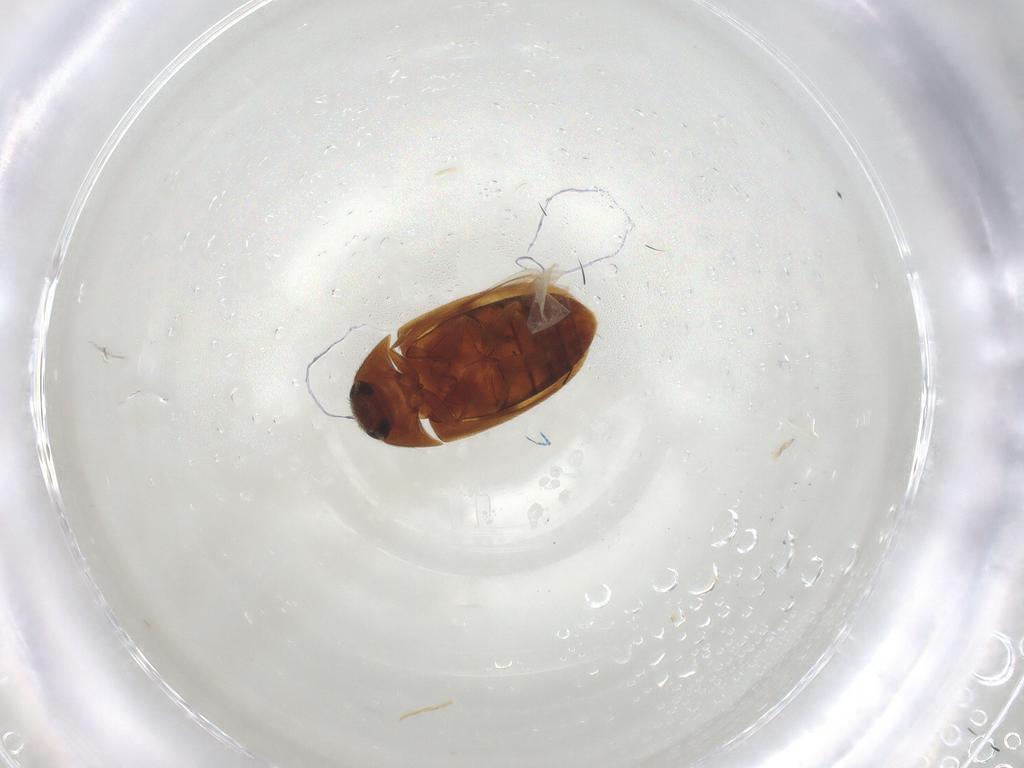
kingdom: Animalia
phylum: Arthropoda
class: Insecta
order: Coleoptera
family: Mycetophagidae
